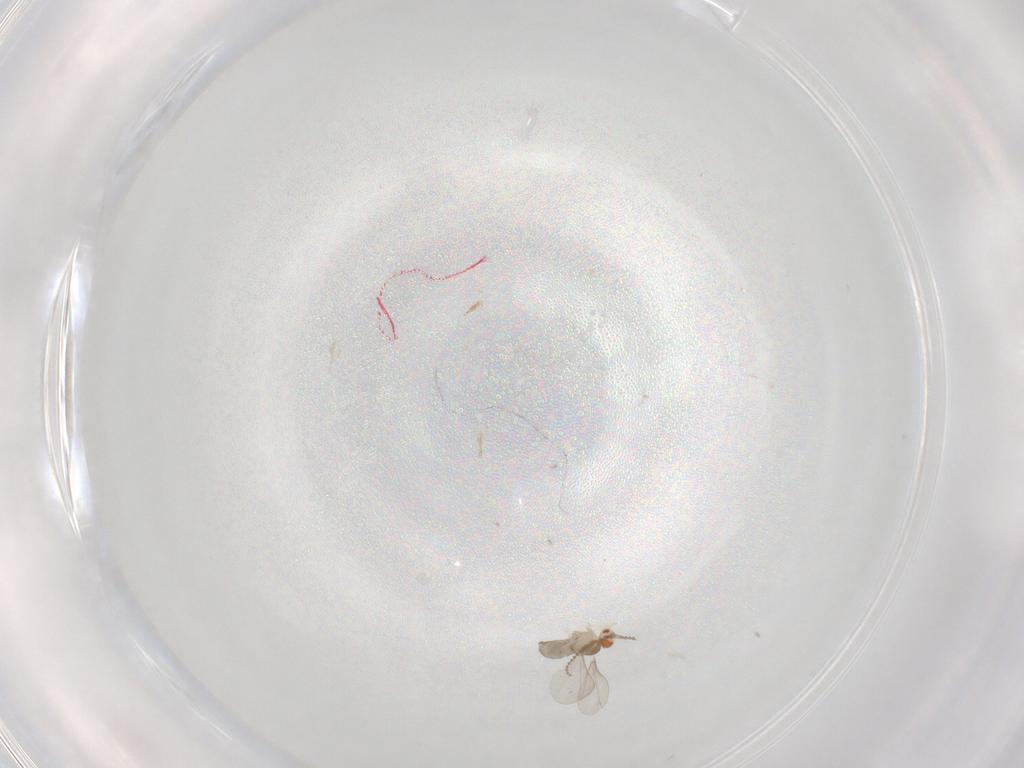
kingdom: Animalia
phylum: Arthropoda
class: Insecta
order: Diptera
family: Cecidomyiidae
